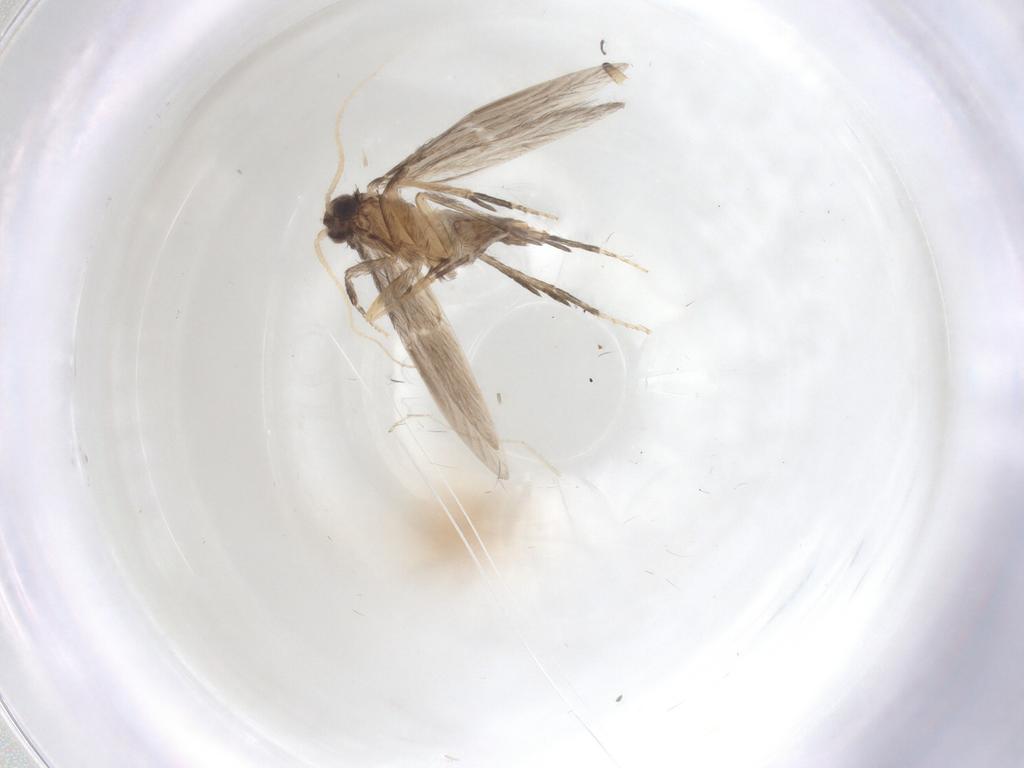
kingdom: Animalia
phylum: Arthropoda
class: Insecta
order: Trichoptera
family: Hydroptilidae
